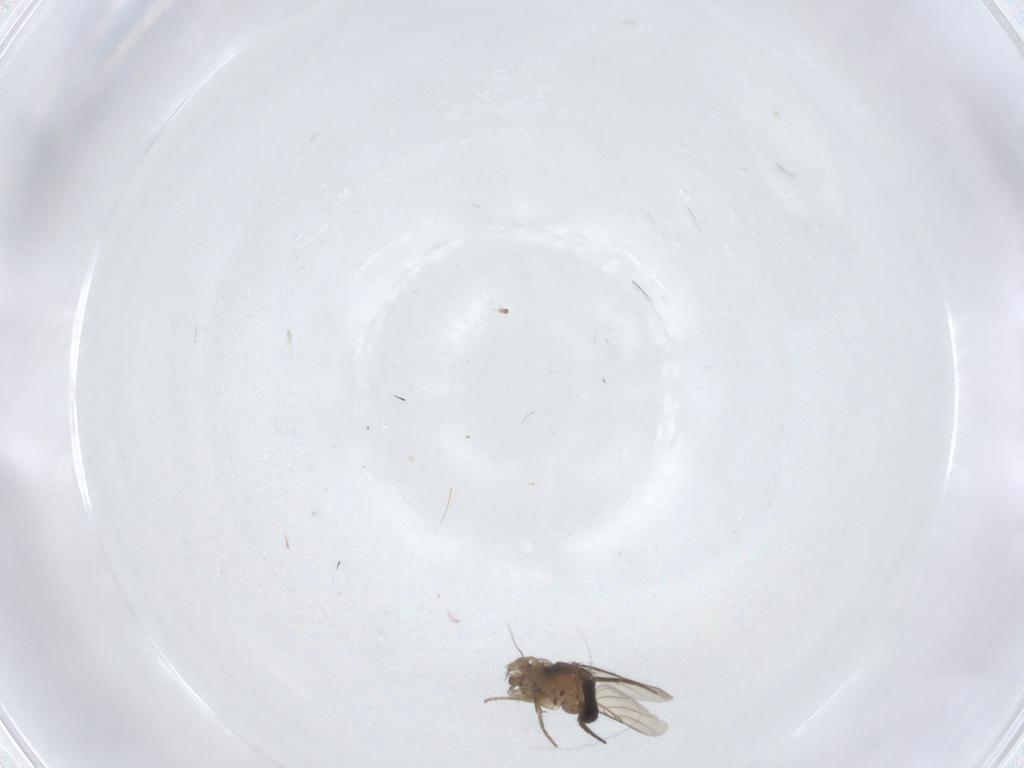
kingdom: Animalia
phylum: Arthropoda
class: Insecta
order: Diptera
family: Phoridae
